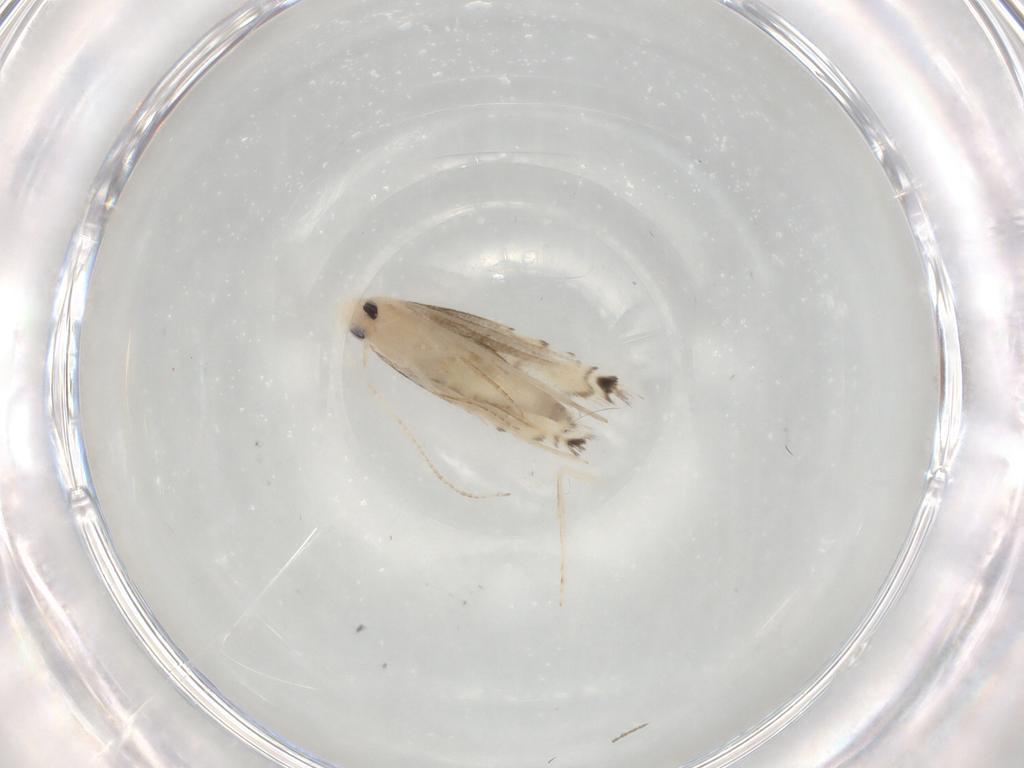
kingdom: Animalia
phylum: Arthropoda
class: Insecta
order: Lepidoptera
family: Gracillariidae
